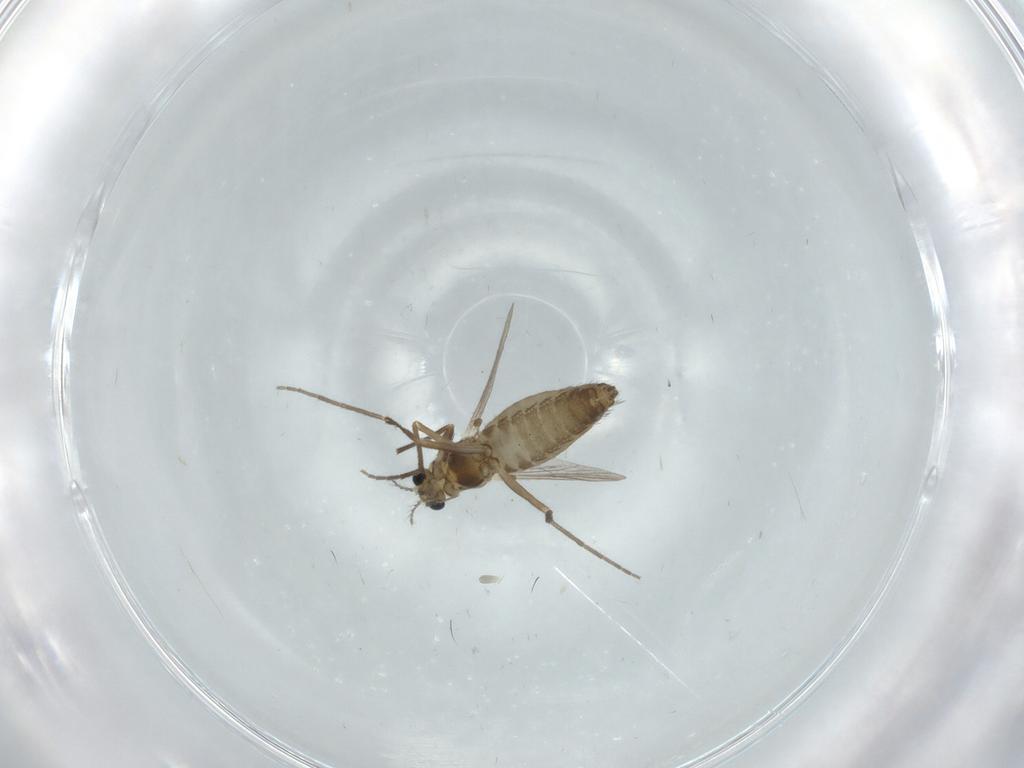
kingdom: Animalia
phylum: Arthropoda
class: Insecta
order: Diptera
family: Chironomidae
